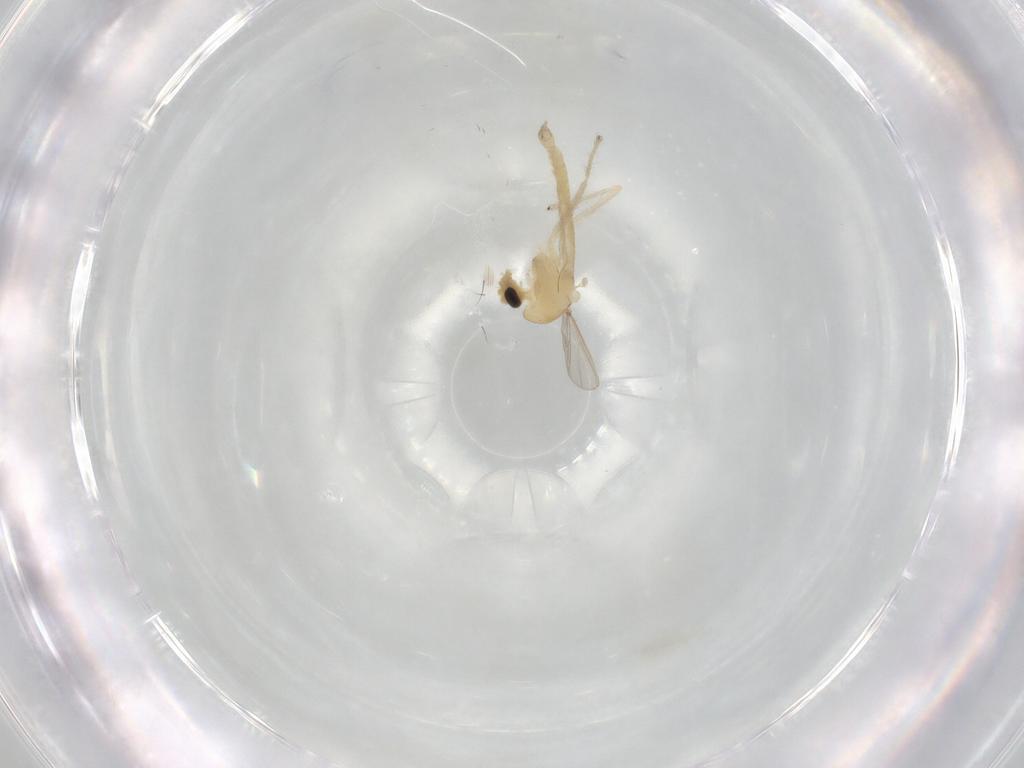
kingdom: Animalia
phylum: Arthropoda
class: Insecta
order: Diptera
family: Chironomidae
